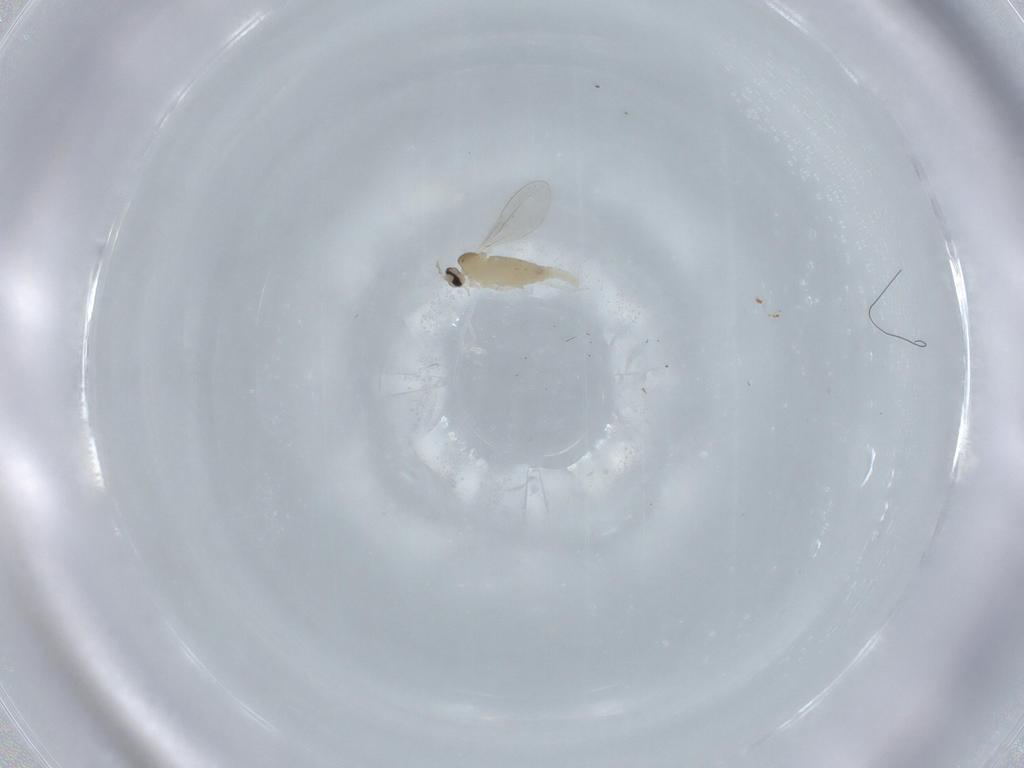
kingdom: Animalia
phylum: Arthropoda
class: Insecta
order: Diptera
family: Cecidomyiidae
